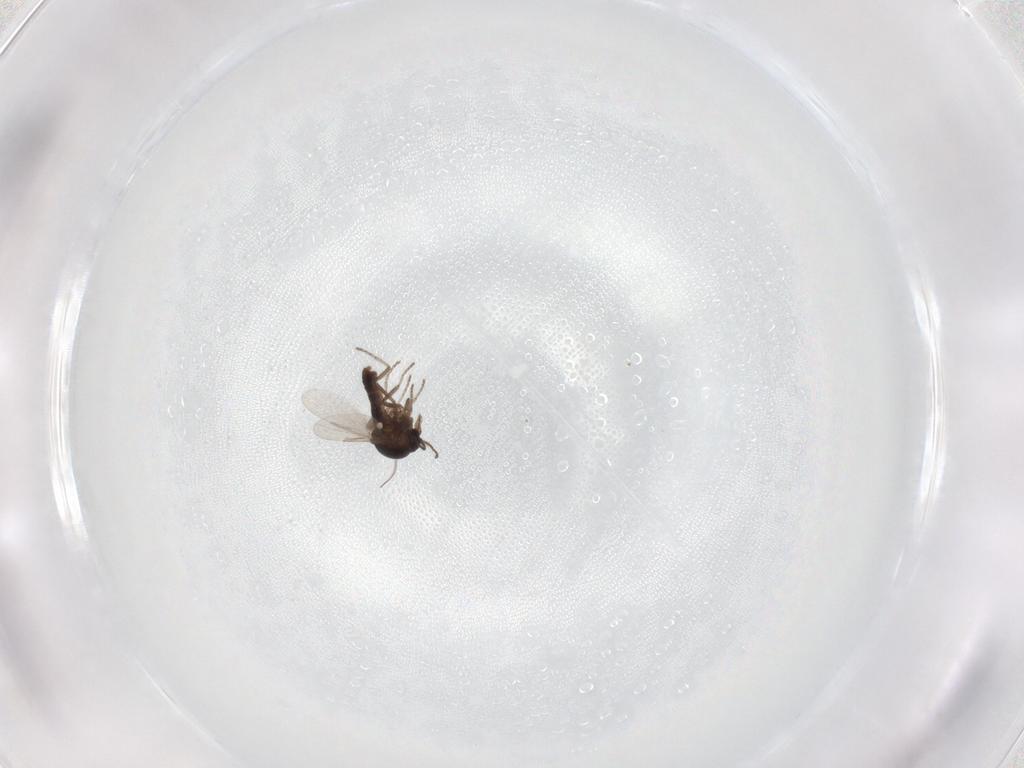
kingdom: Animalia
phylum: Arthropoda
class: Insecta
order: Diptera
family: Ceratopogonidae
